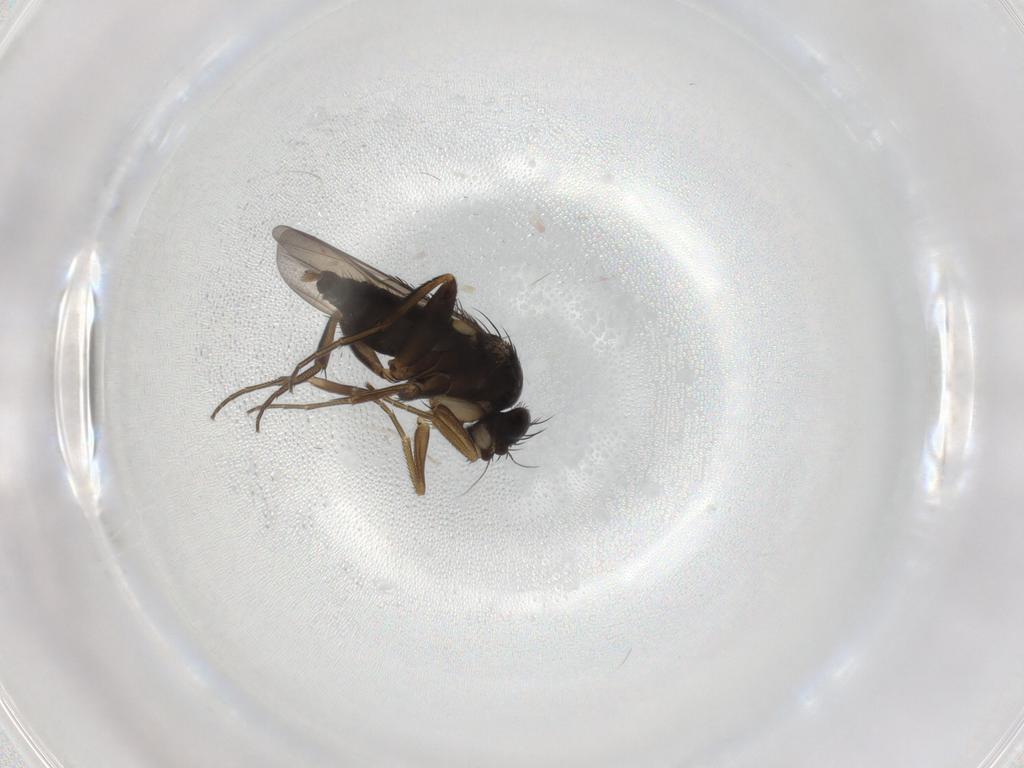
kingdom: Animalia
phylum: Arthropoda
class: Insecta
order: Diptera
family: Phoridae
